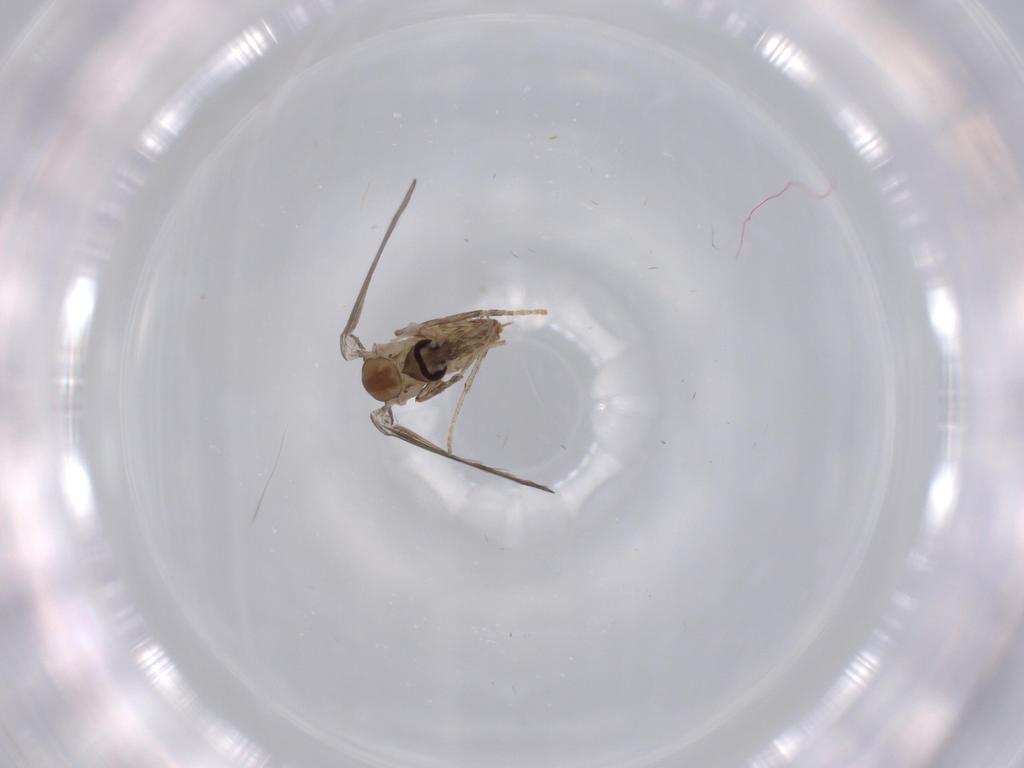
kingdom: Animalia
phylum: Arthropoda
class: Insecta
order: Diptera
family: Psychodidae
